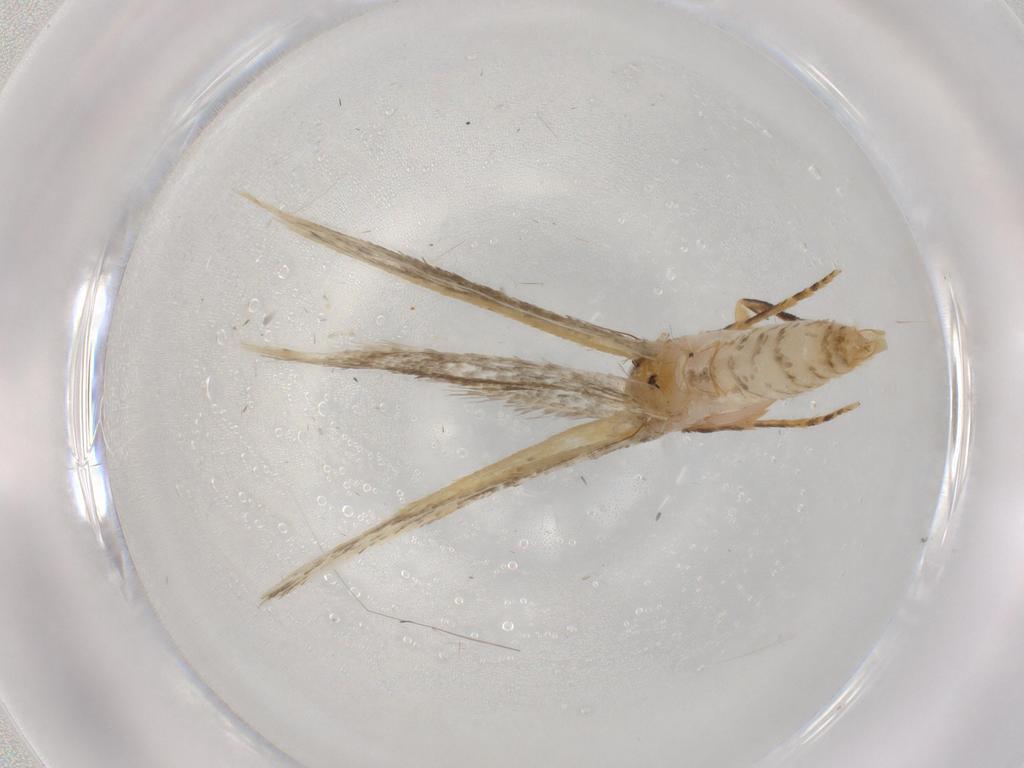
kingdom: Animalia
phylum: Arthropoda
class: Insecta
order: Lepidoptera
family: Tineidae
